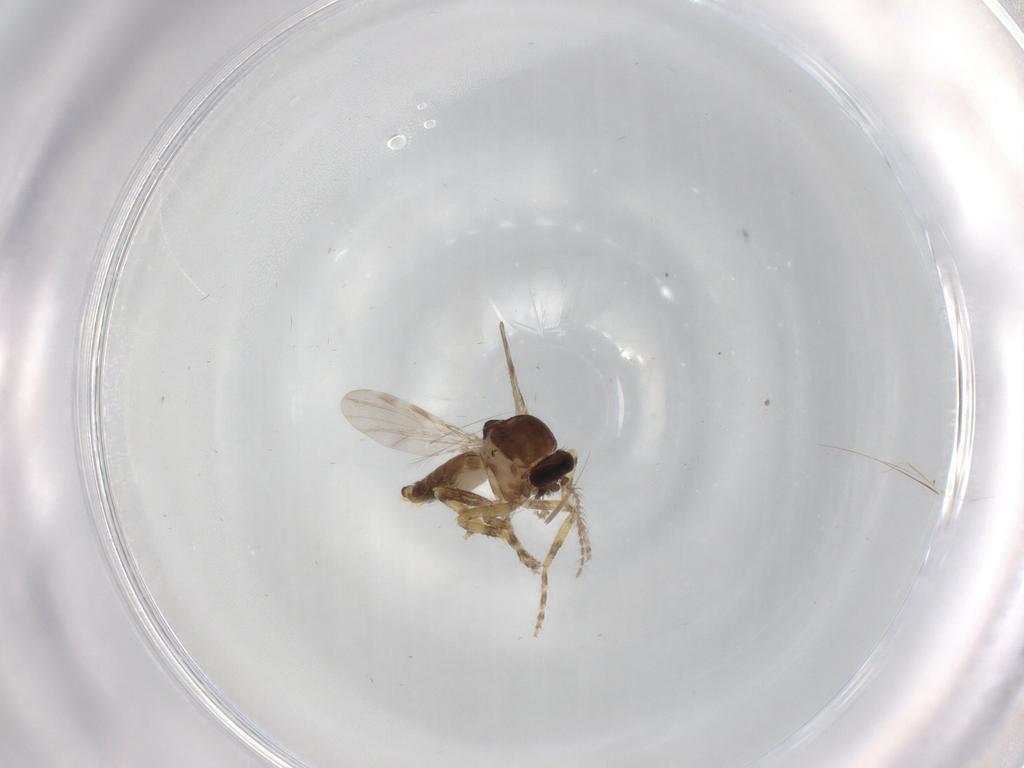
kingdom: Animalia
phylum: Arthropoda
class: Insecta
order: Diptera
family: Ceratopogonidae
